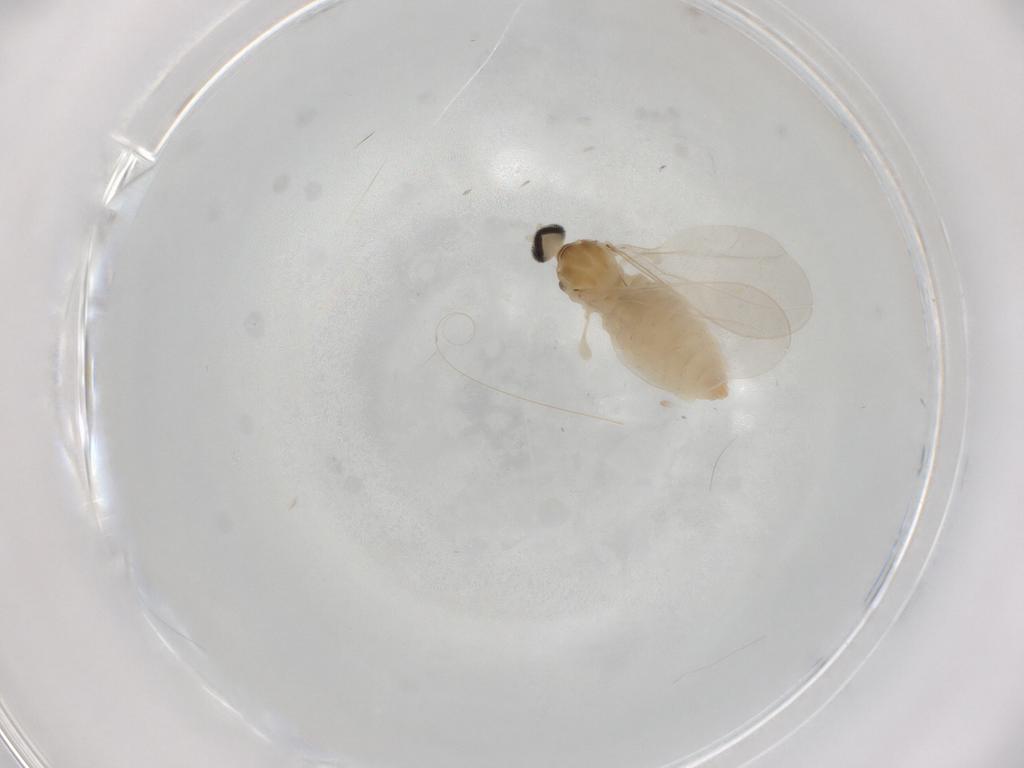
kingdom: Animalia
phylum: Arthropoda
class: Insecta
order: Diptera
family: Cecidomyiidae
